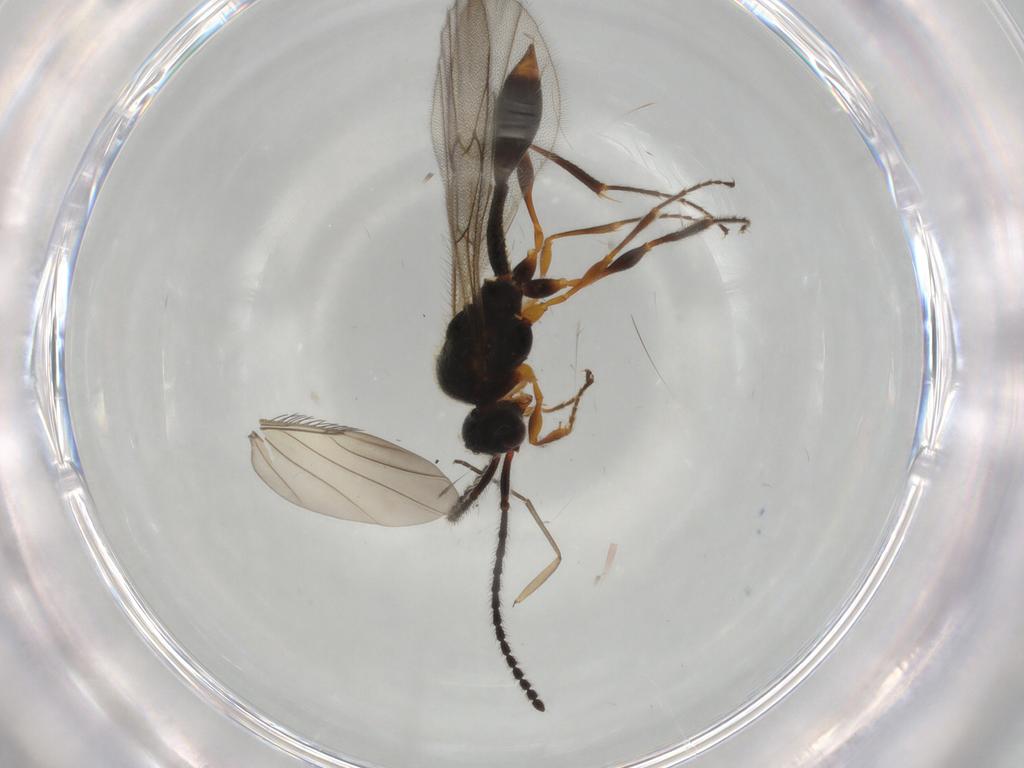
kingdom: Animalia
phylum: Arthropoda
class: Insecta
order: Hymenoptera
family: Diapriidae
